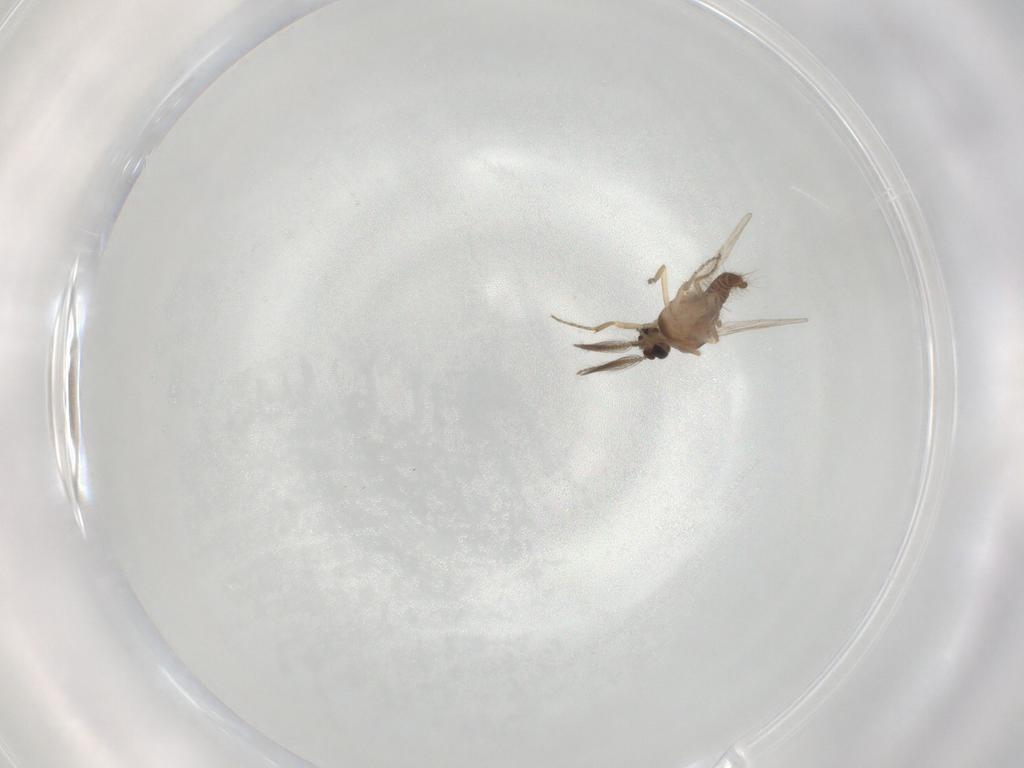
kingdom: Animalia
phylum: Arthropoda
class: Insecta
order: Diptera
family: Ceratopogonidae
